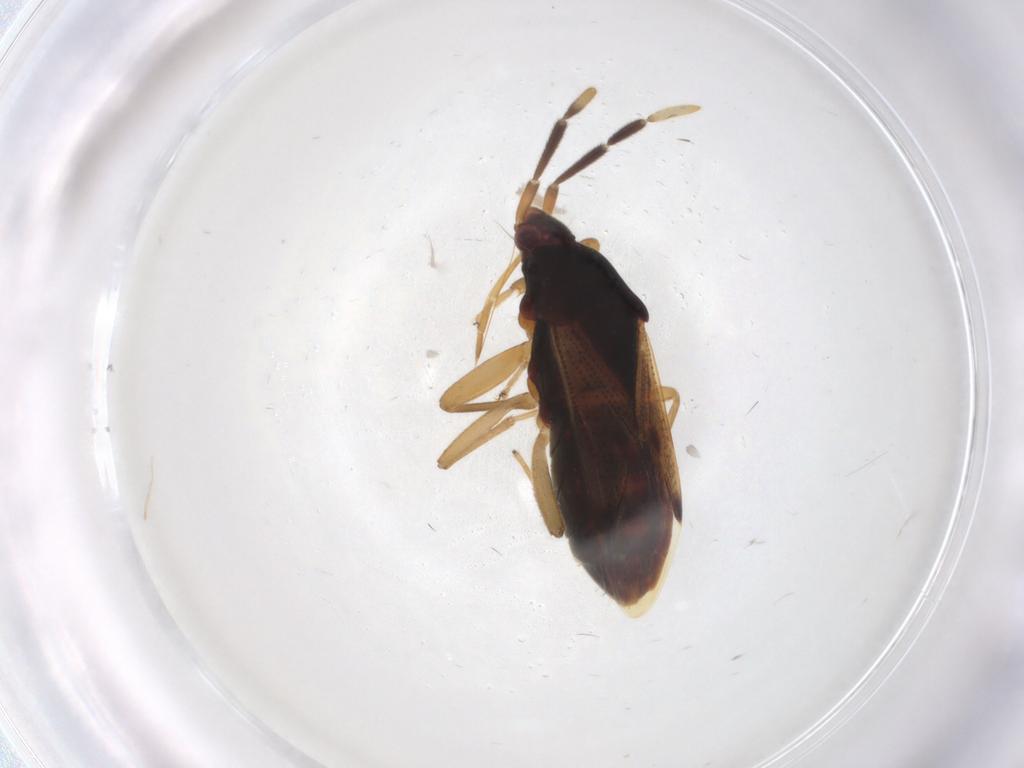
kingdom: Animalia
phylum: Arthropoda
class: Insecta
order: Hemiptera
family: Rhyparochromidae
